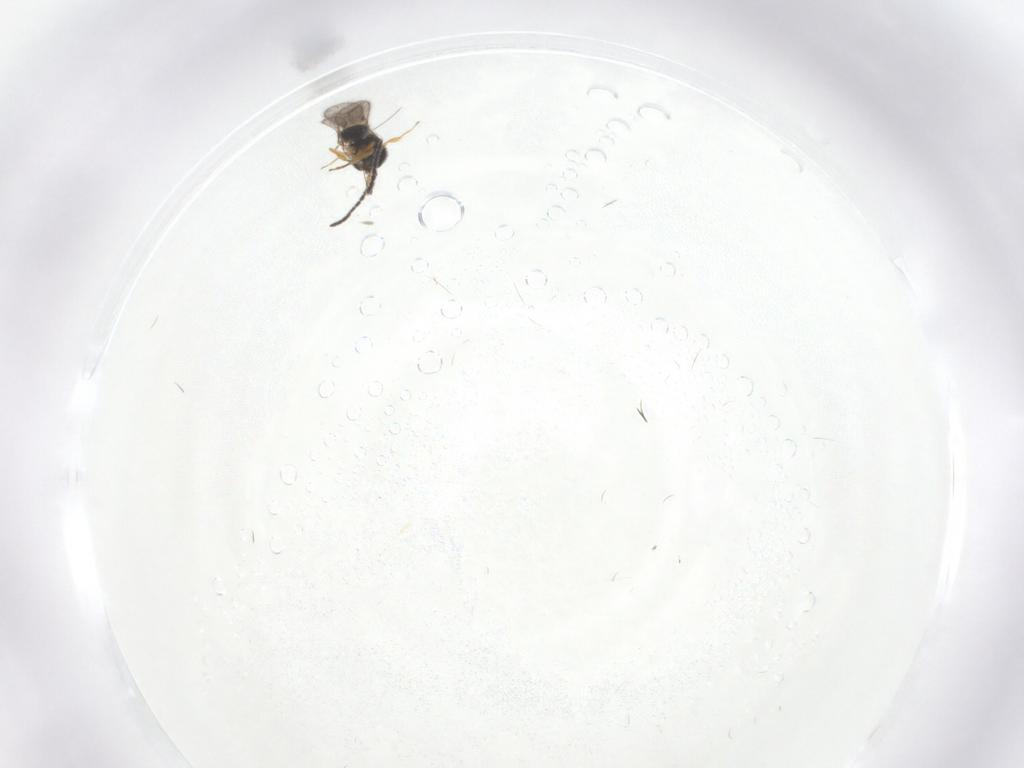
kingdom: Animalia
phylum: Arthropoda
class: Insecta
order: Hymenoptera
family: Scelionidae
